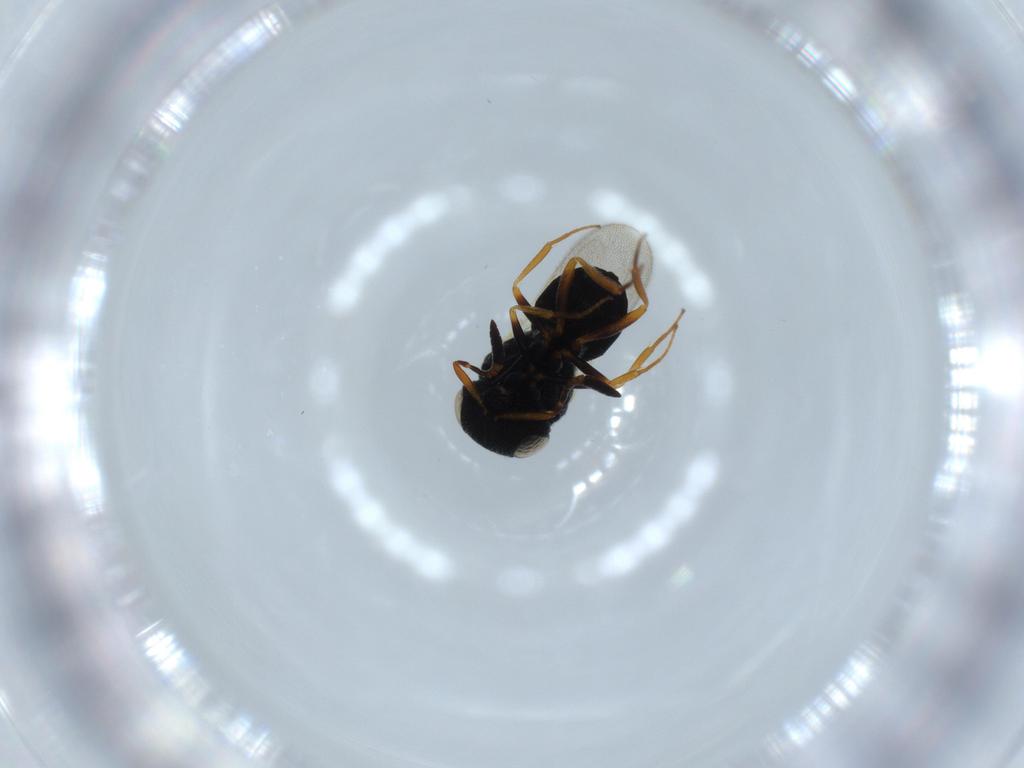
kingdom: Animalia
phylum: Arthropoda
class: Insecta
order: Hymenoptera
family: Scelionidae
